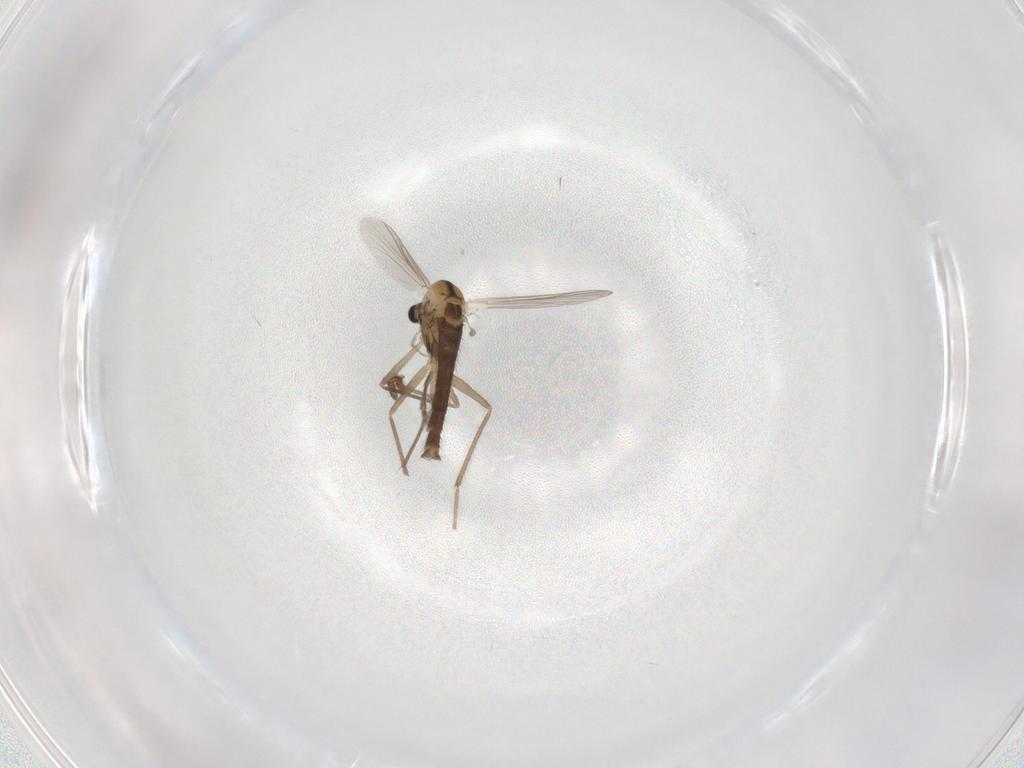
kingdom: Animalia
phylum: Arthropoda
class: Insecta
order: Diptera
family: Chironomidae
